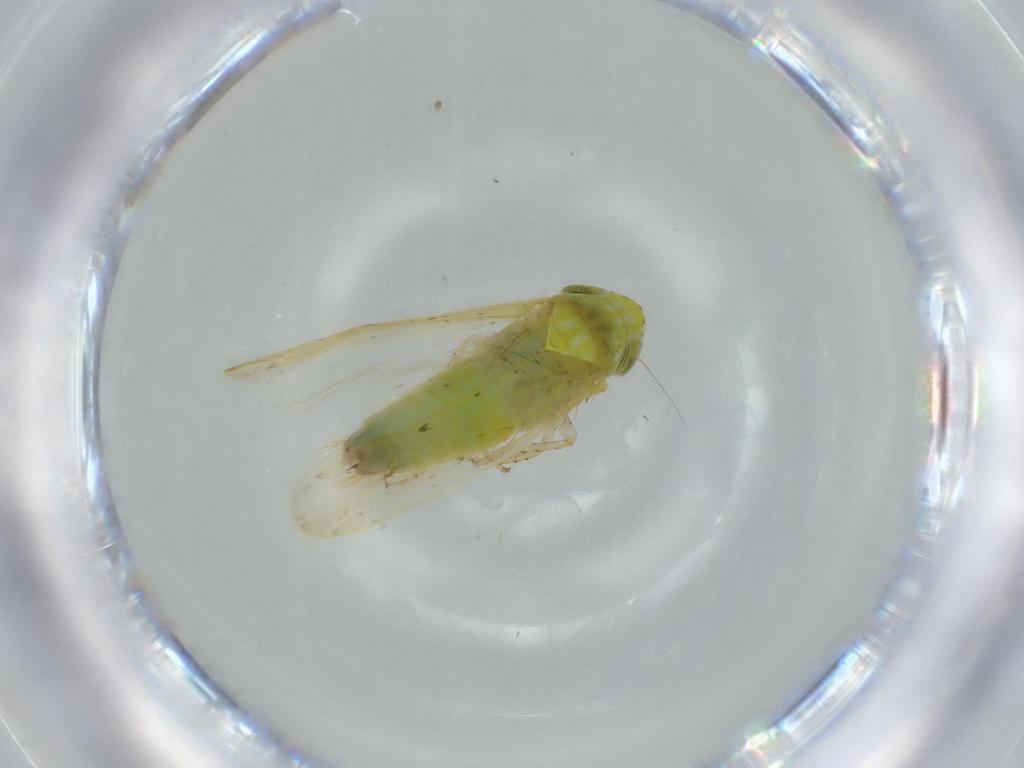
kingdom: Animalia
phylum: Arthropoda
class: Insecta
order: Hemiptera
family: Cicadellidae
